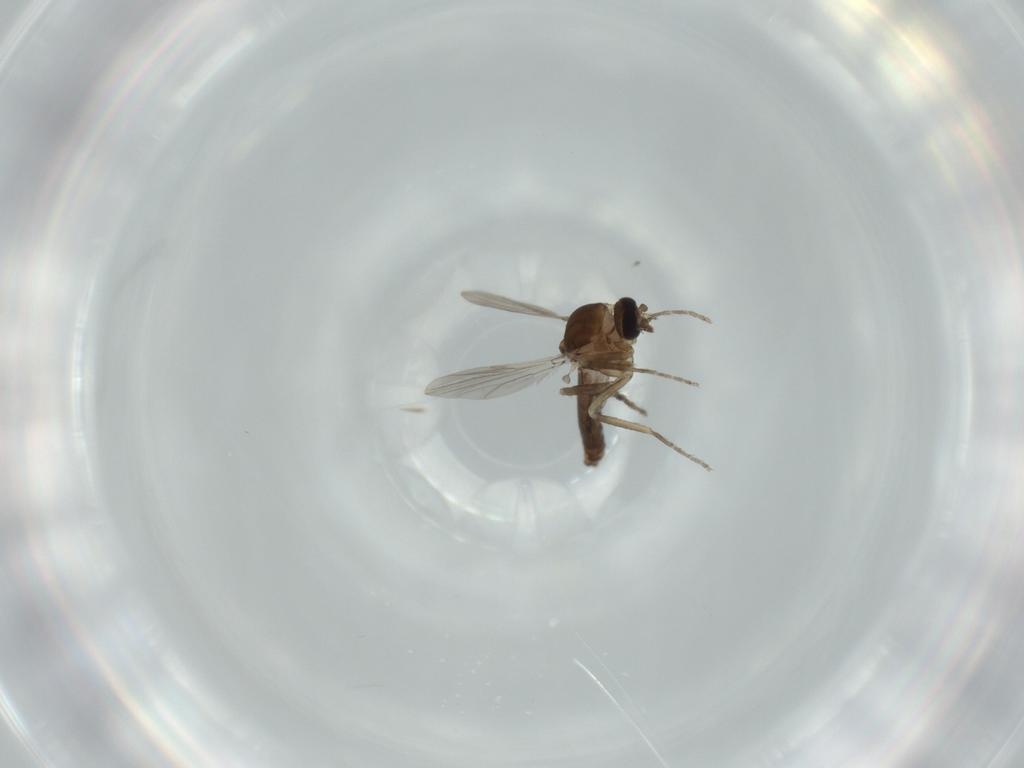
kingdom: Animalia
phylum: Arthropoda
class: Insecta
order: Diptera
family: Ceratopogonidae
